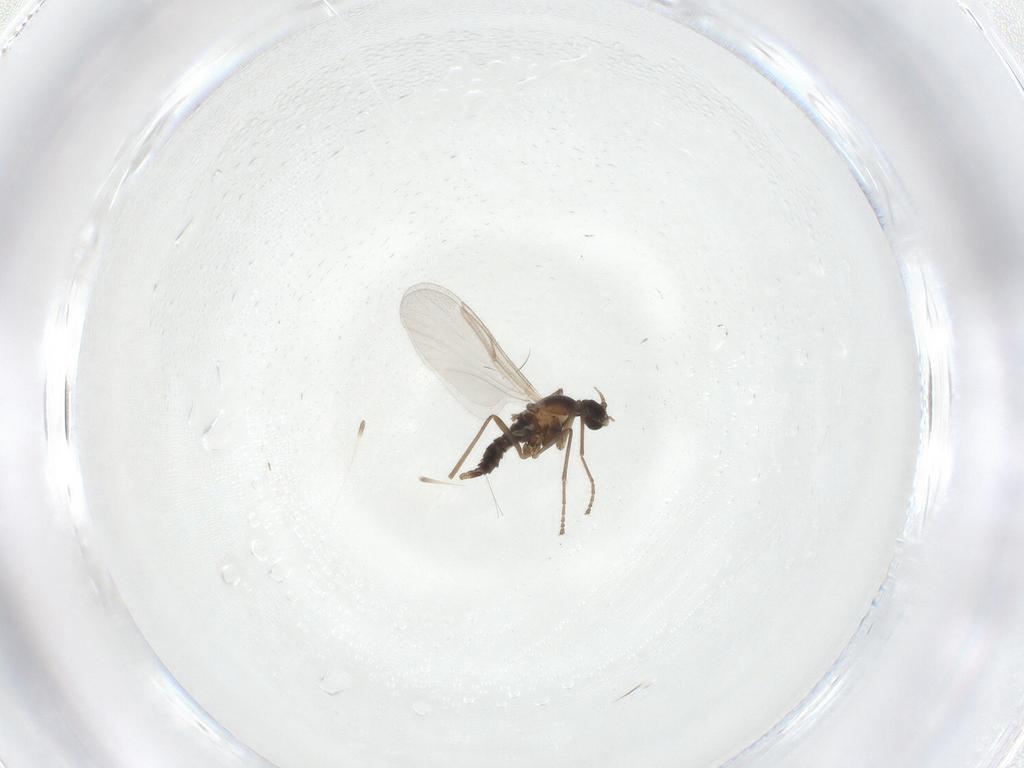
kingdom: Animalia
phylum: Arthropoda
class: Insecta
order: Diptera
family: Cecidomyiidae
